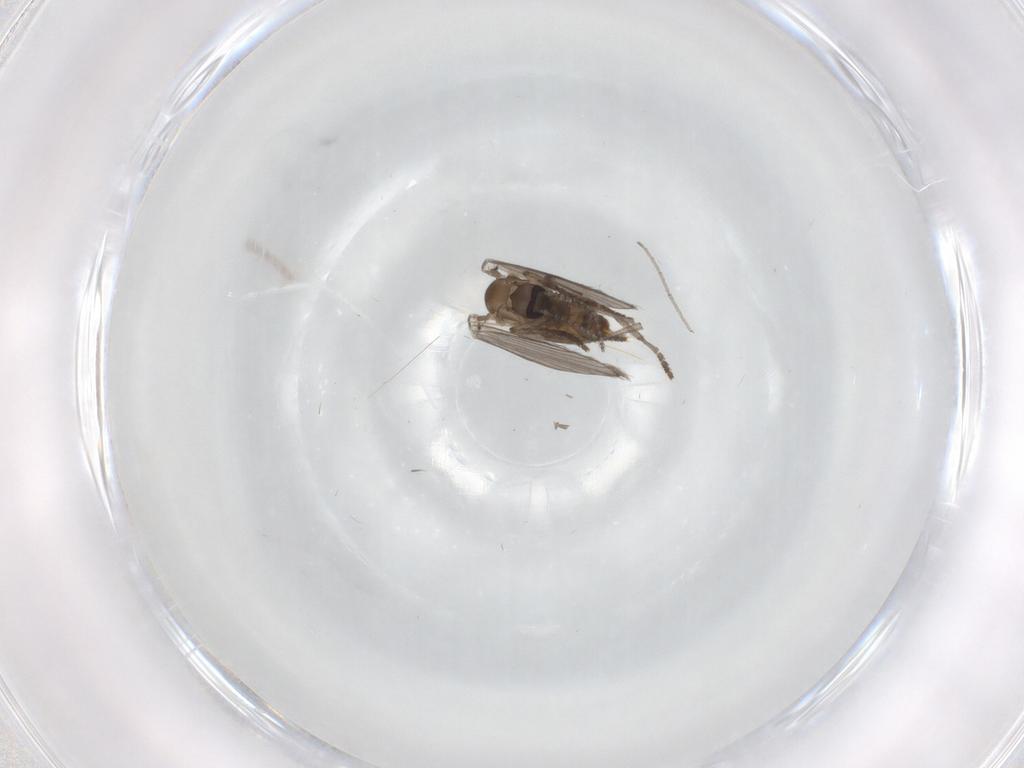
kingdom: Animalia
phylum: Arthropoda
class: Insecta
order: Diptera
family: Chironomidae
